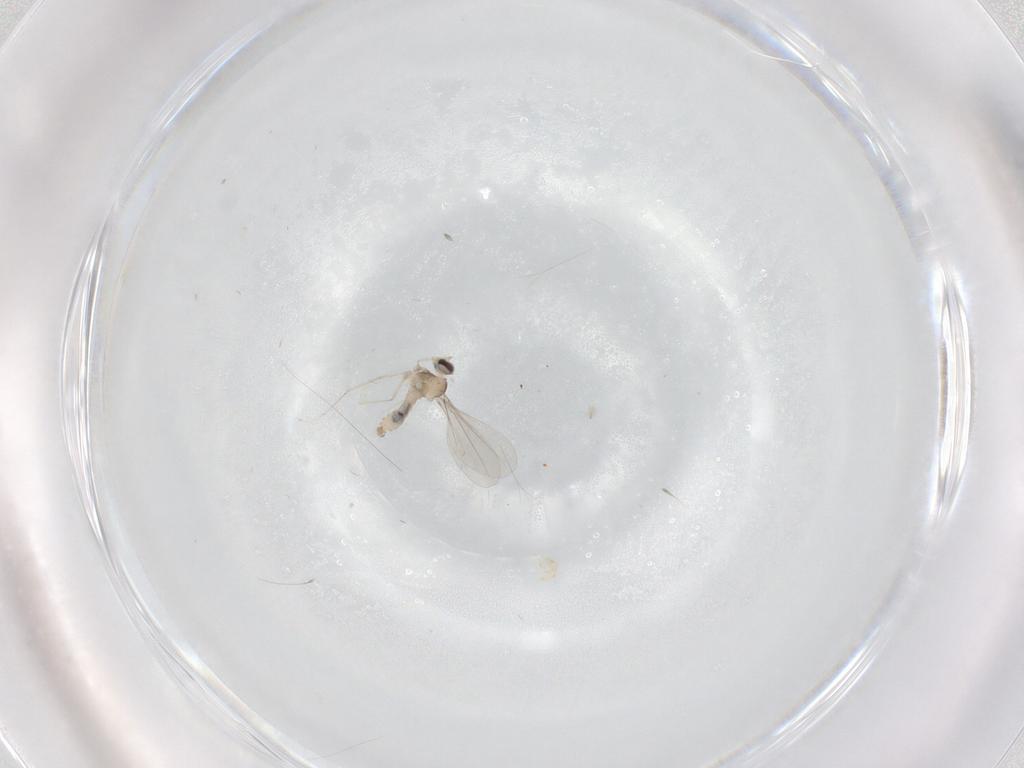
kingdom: Animalia
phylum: Arthropoda
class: Insecta
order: Diptera
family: Cecidomyiidae
